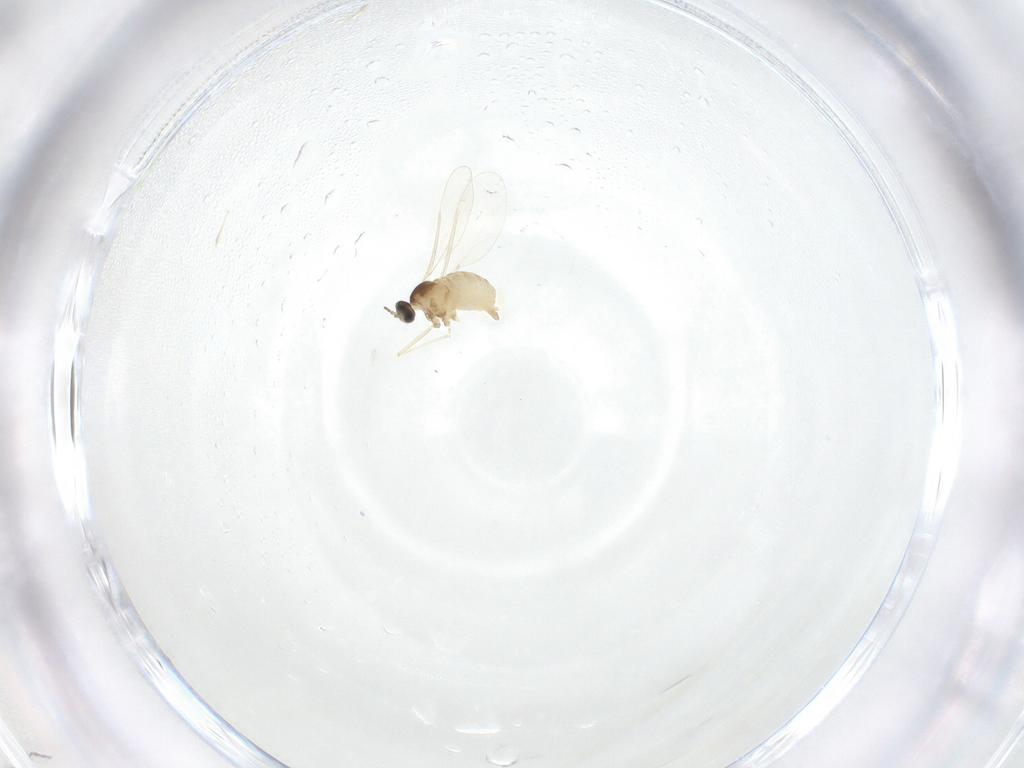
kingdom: Animalia
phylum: Arthropoda
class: Insecta
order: Diptera
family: Cecidomyiidae
